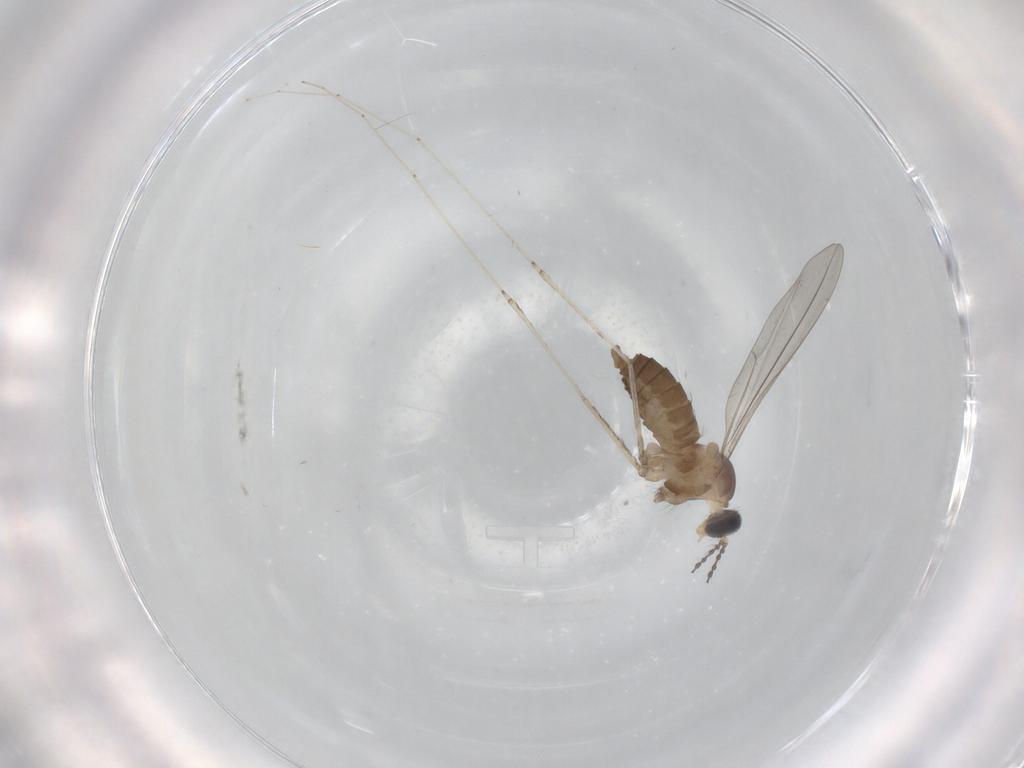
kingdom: Animalia
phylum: Arthropoda
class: Insecta
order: Diptera
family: Cecidomyiidae
